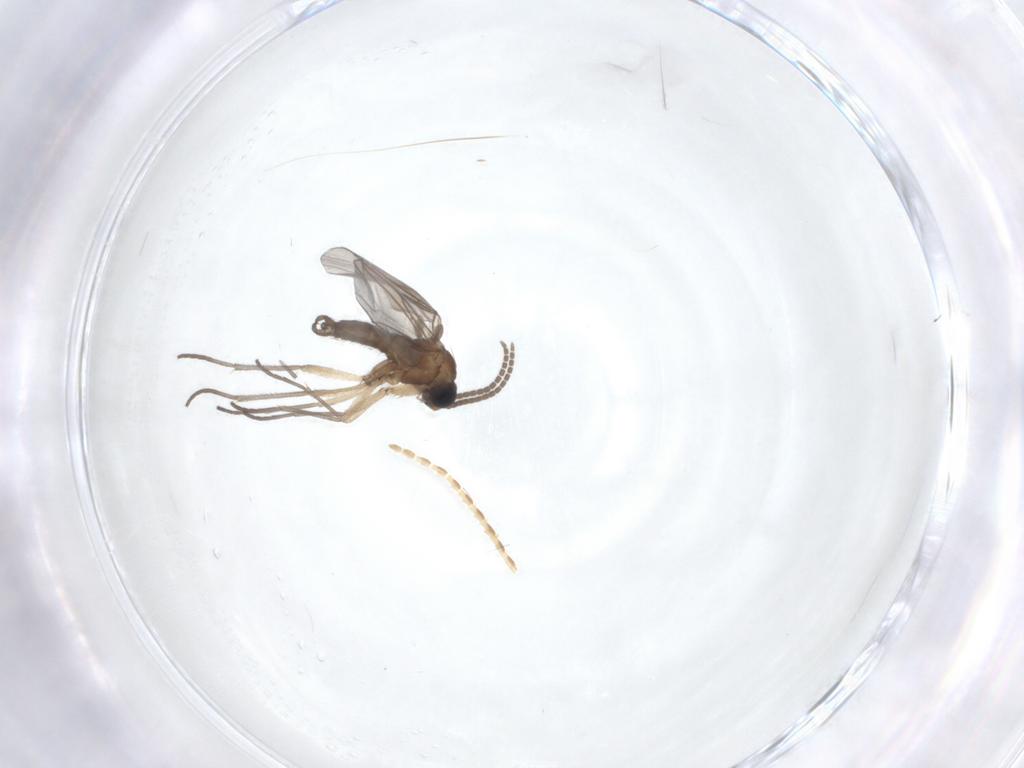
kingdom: Animalia
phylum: Arthropoda
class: Insecta
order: Diptera
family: Sciaridae
